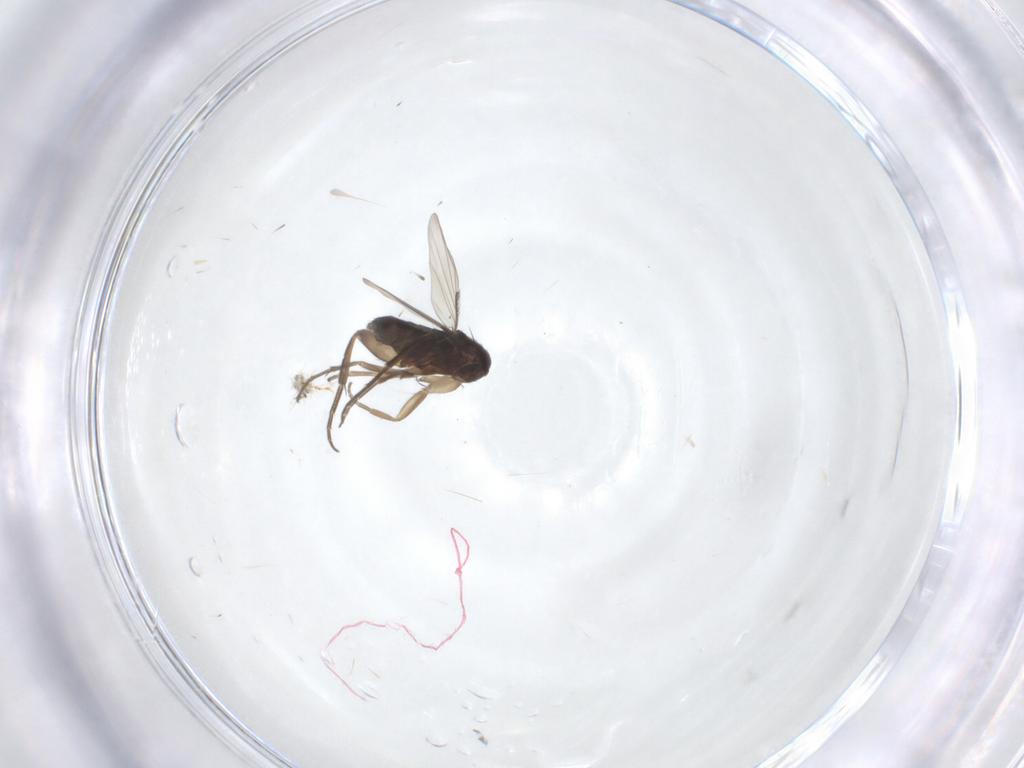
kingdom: Animalia
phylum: Arthropoda
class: Insecta
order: Diptera
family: Phoridae
